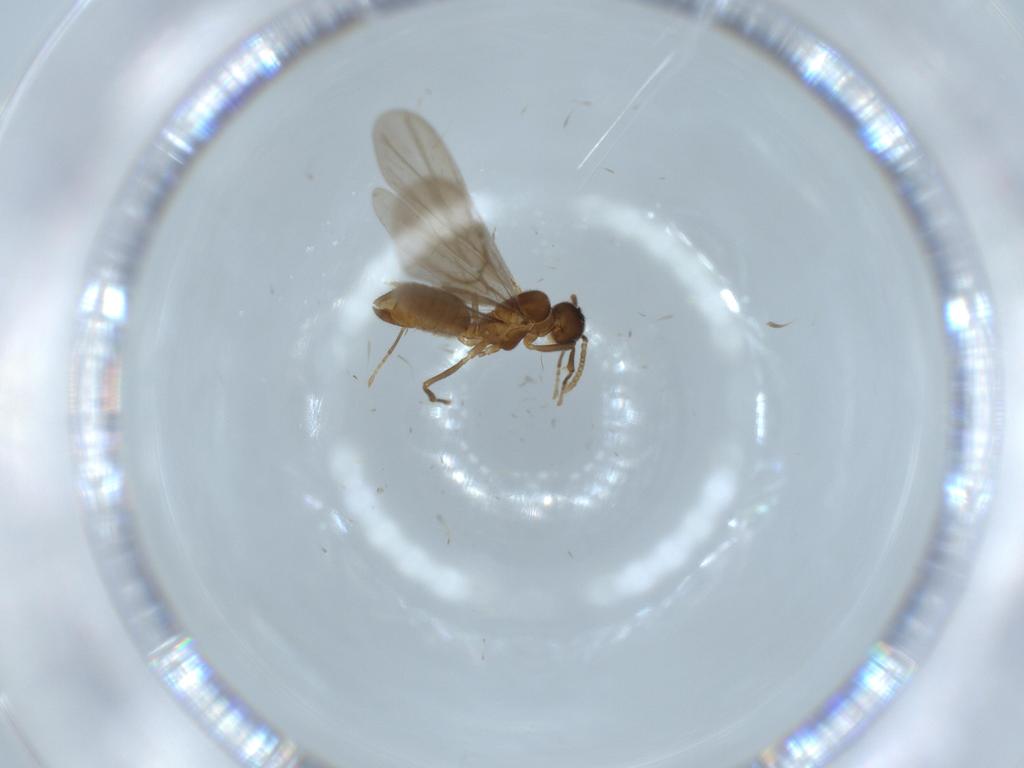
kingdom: Animalia
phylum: Arthropoda
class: Insecta
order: Hymenoptera
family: Formicidae
